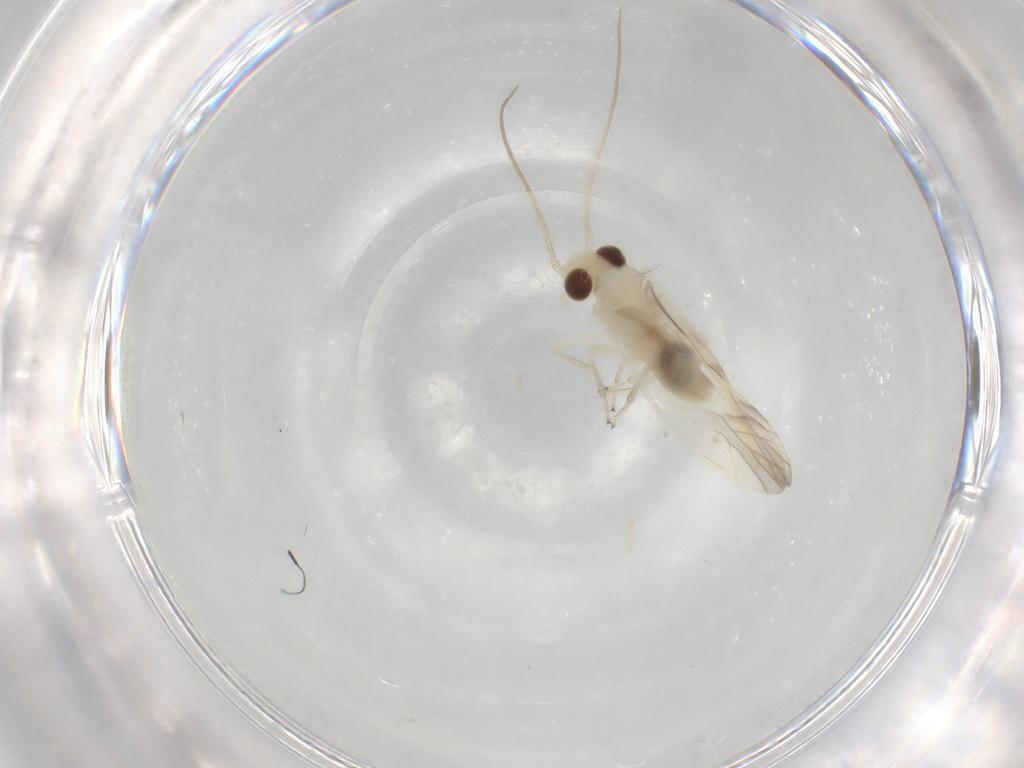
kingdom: Animalia
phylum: Arthropoda
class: Insecta
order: Psocodea
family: Caeciliusidae
